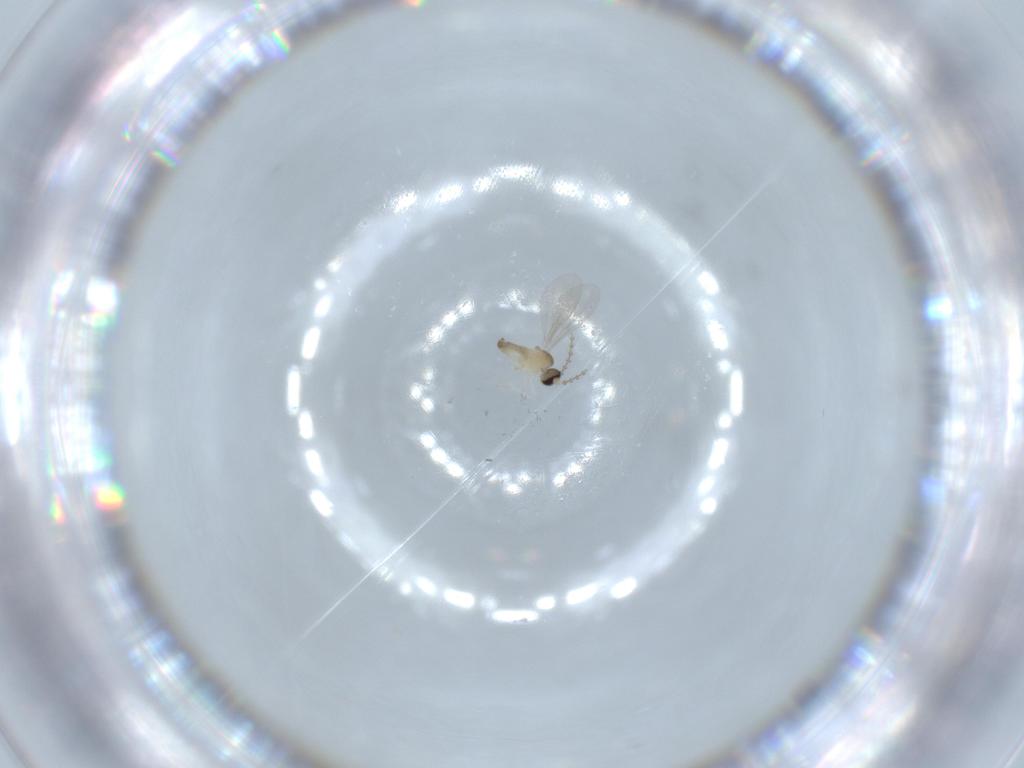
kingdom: Animalia
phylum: Arthropoda
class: Insecta
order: Diptera
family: Cecidomyiidae
